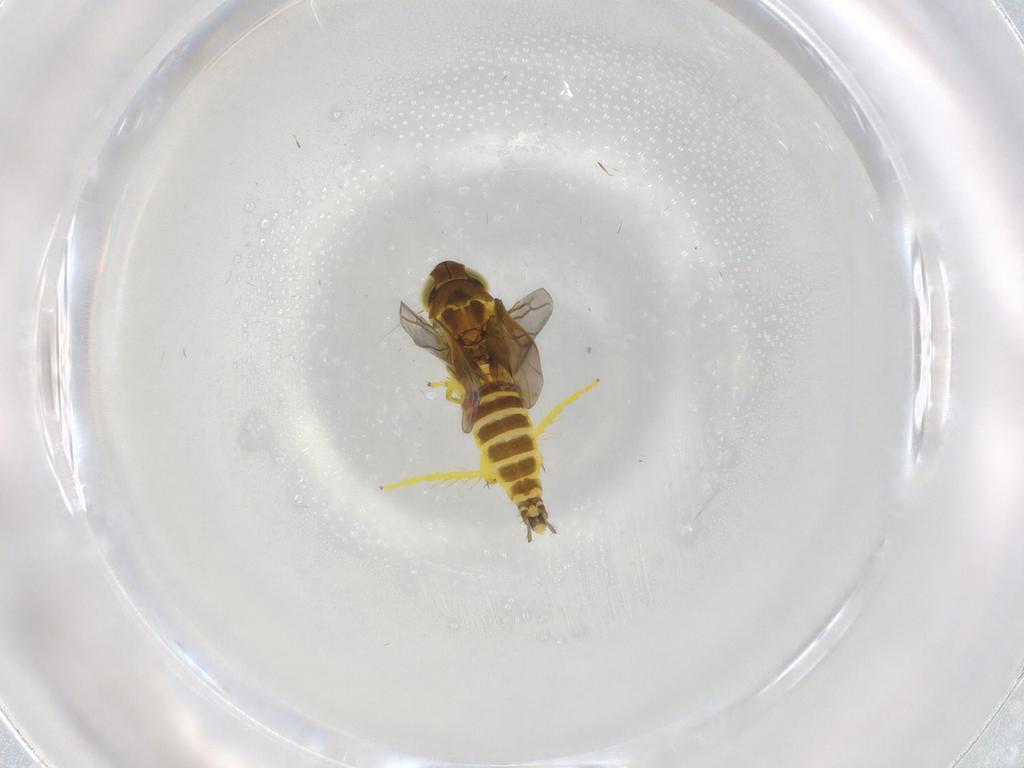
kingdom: Animalia
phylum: Arthropoda
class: Insecta
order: Hemiptera
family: Cicadellidae
